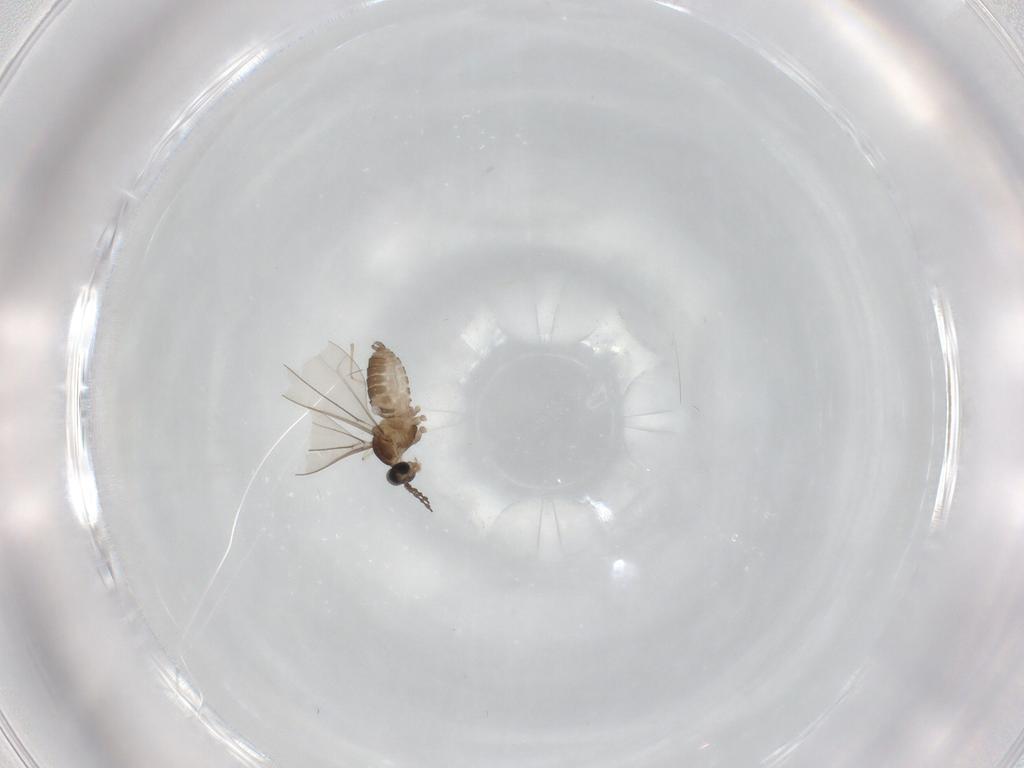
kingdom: Animalia
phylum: Arthropoda
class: Insecta
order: Diptera
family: Cecidomyiidae
